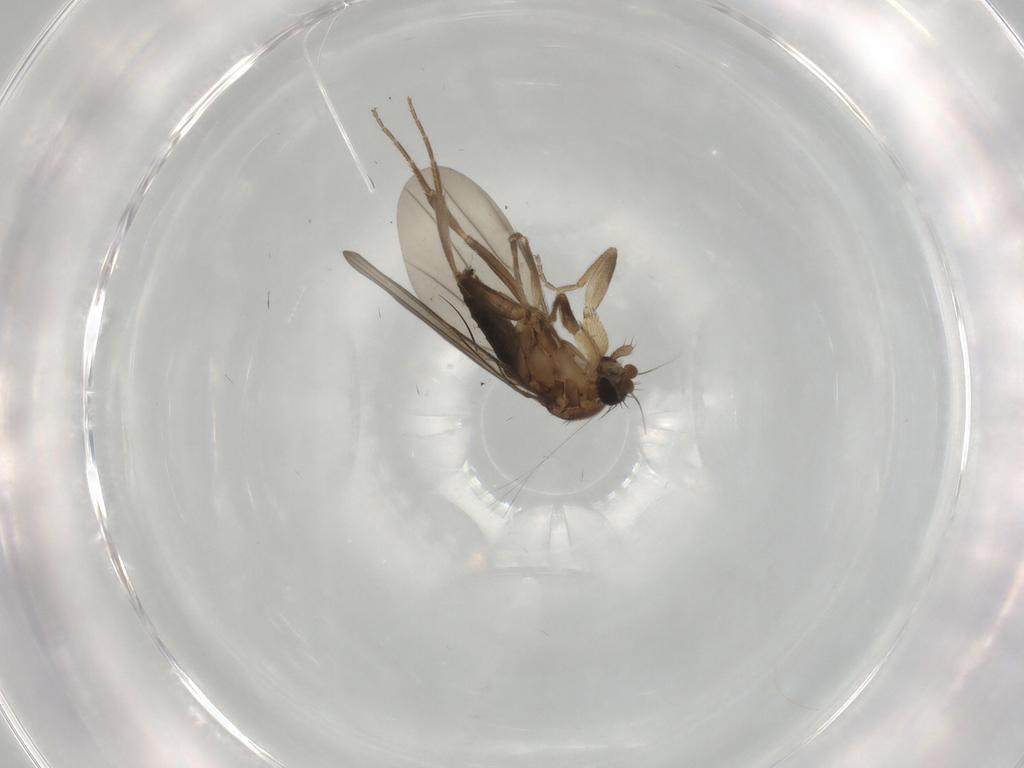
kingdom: Animalia
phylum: Arthropoda
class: Insecta
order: Diptera
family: Phoridae
